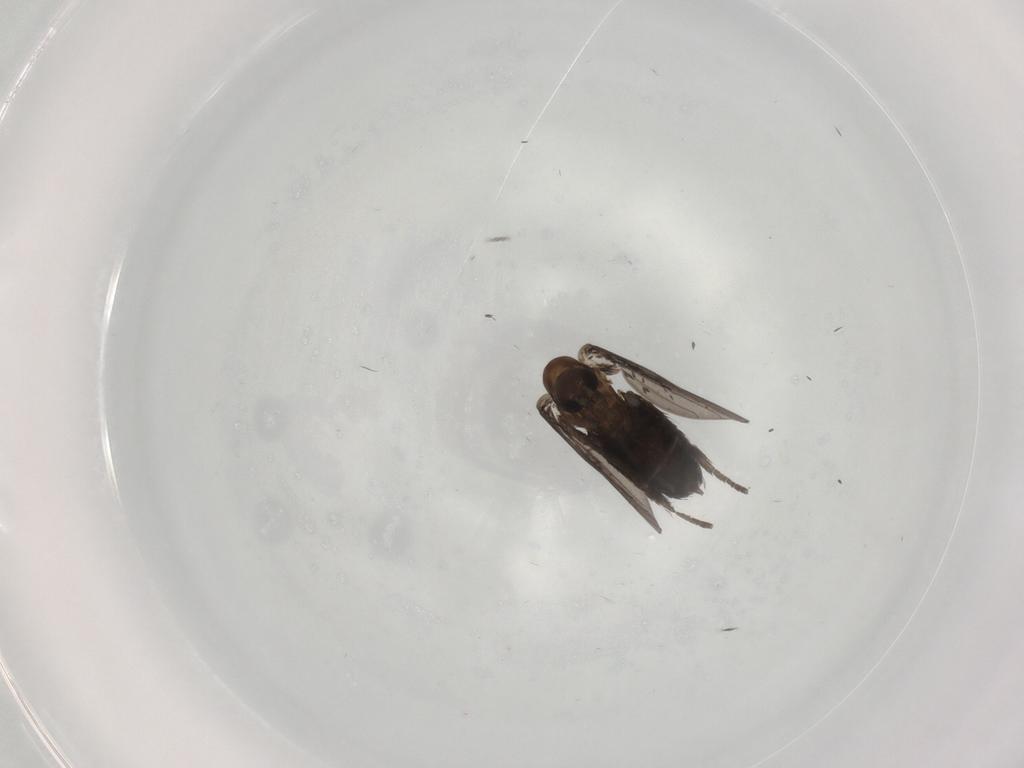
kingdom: Animalia
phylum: Arthropoda
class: Insecta
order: Diptera
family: Psychodidae
